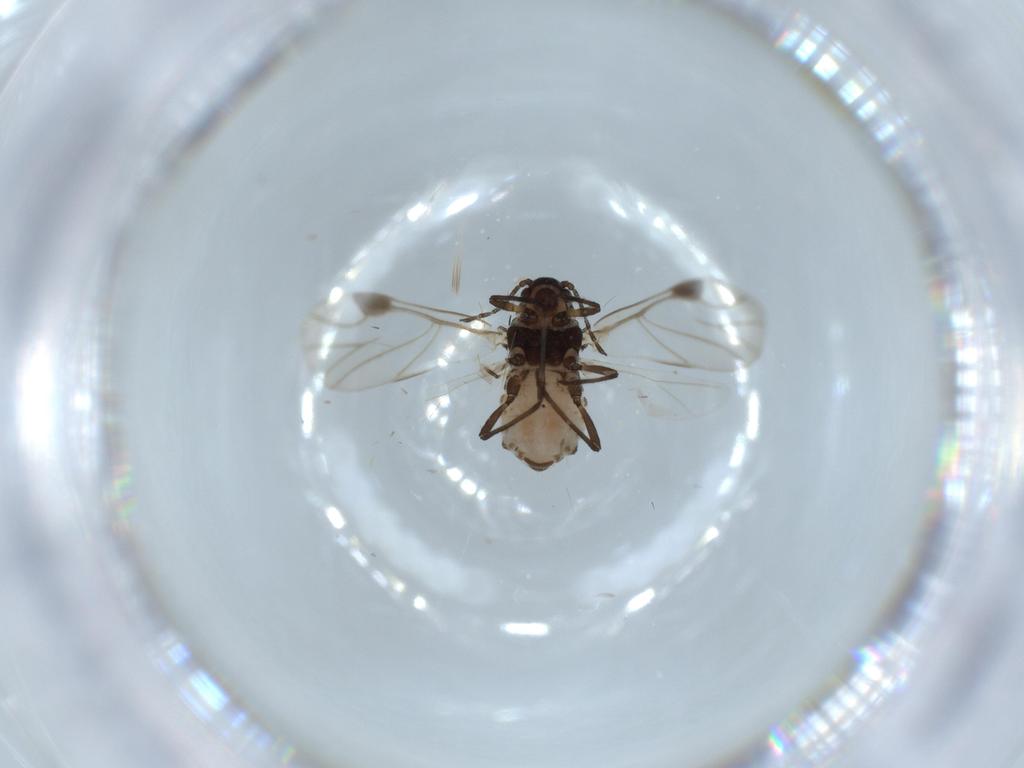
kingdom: Animalia
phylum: Arthropoda
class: Insecta
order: Hemiptera
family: Aphididae
